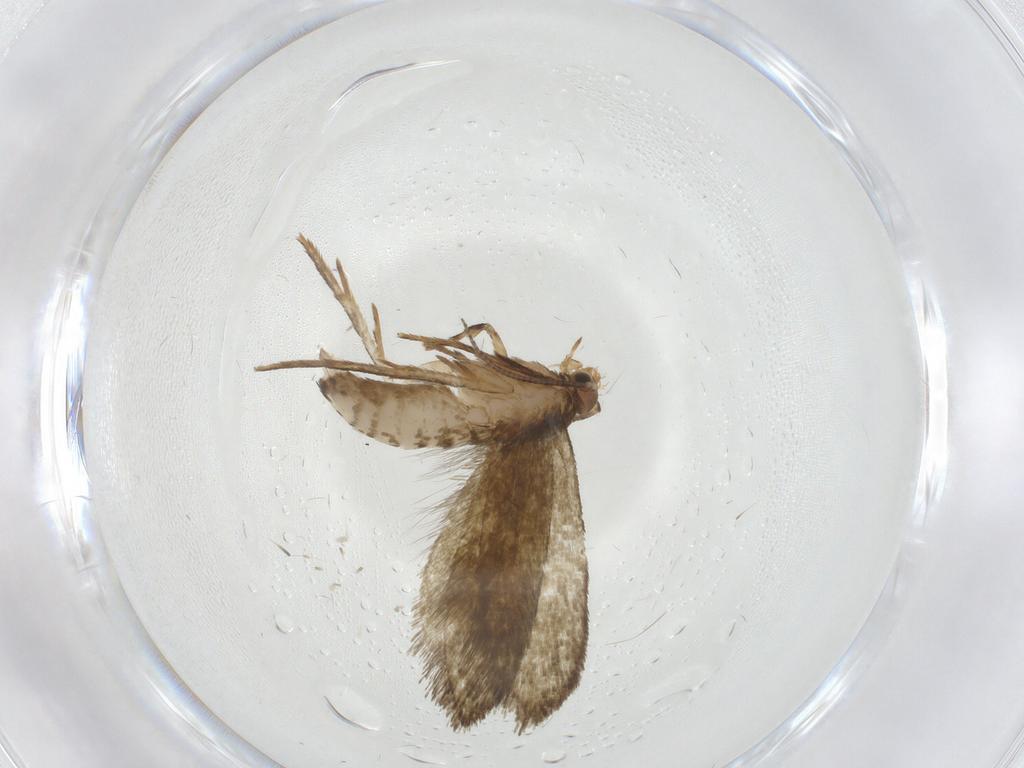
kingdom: Animalia
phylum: Arthropoda
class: Insecta
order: Lepidoptera
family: Tineidae
